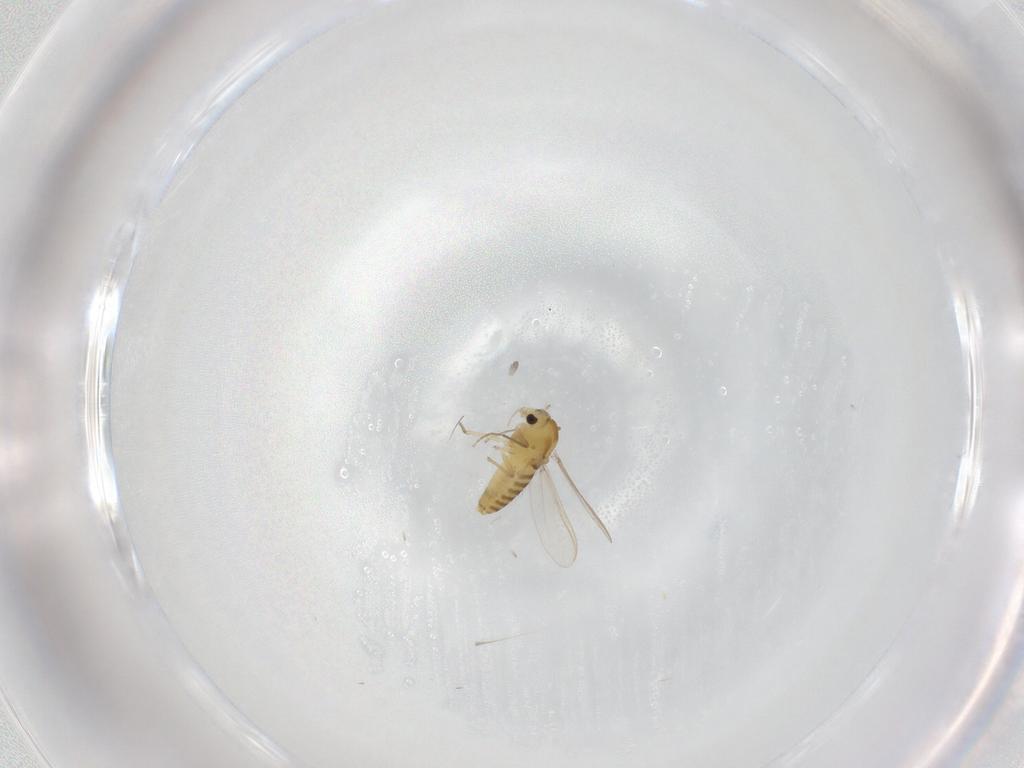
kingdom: Animalia
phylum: Arthropoda
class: Insecta
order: Diptera
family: Chironomidae
